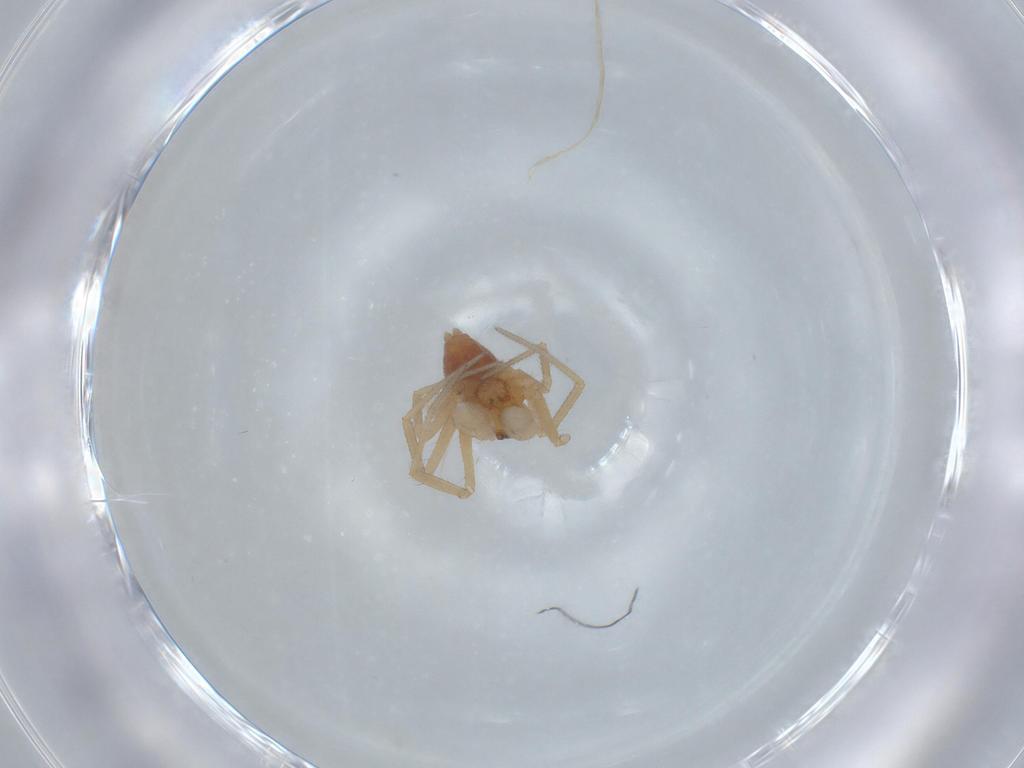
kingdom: Animalia
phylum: Arthropoda
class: Arachnida
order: Araneae
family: Linyphiidae
